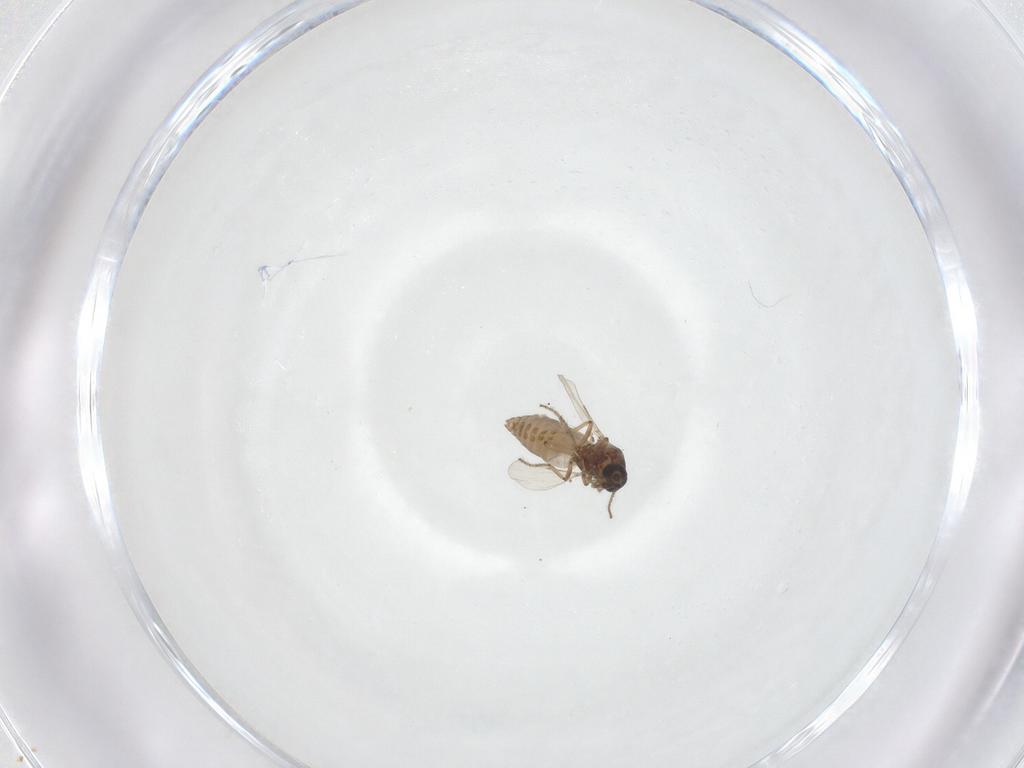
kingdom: Animalia
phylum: Arthropoda
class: Insecta
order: Diptera
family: Ceratopogonidae
